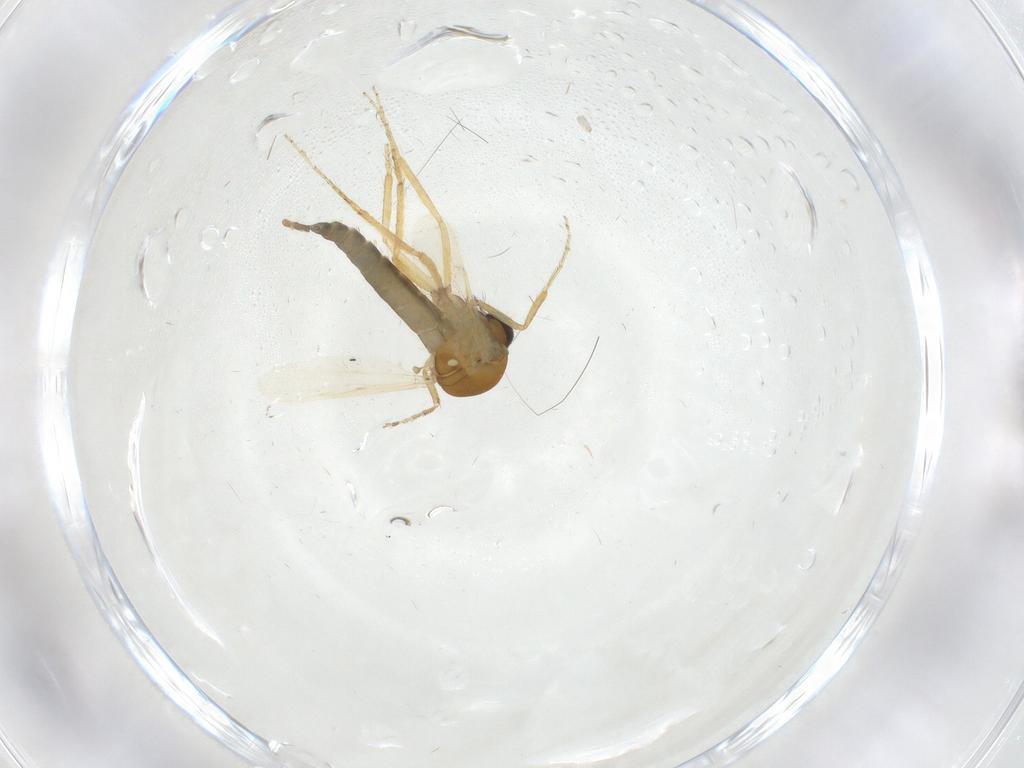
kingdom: Animalia
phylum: Arthropoda
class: Insecta
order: Diptera
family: Ceratopogonidae
